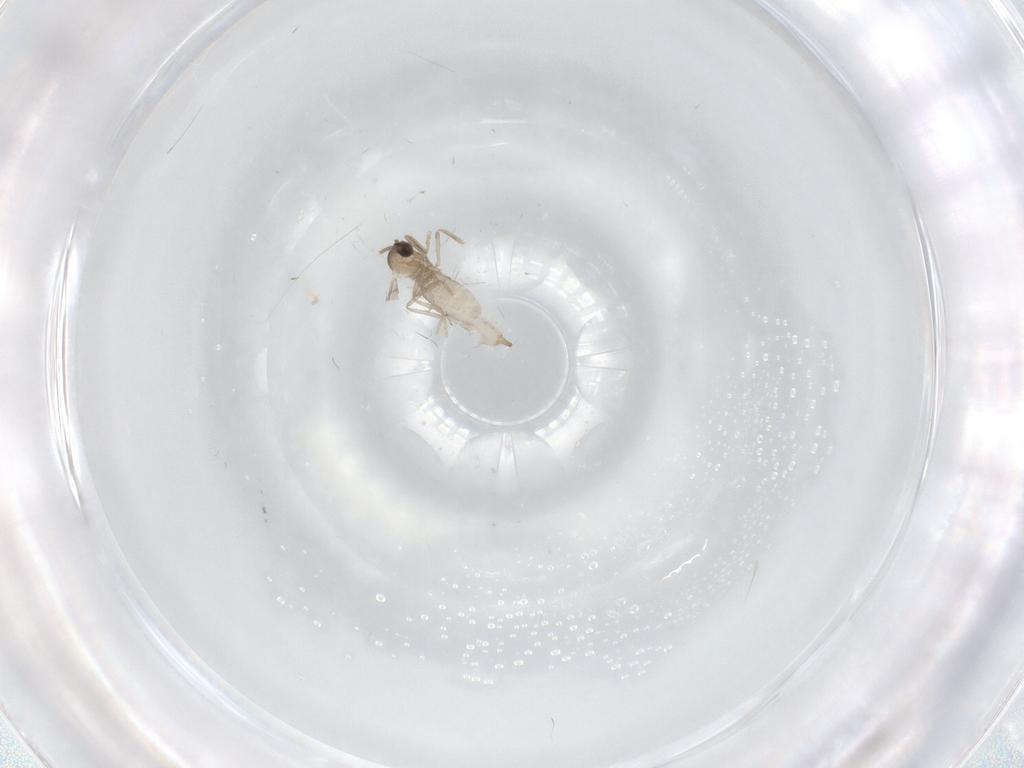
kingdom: Animalia
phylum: Arthropoda
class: Insecta
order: Diptera
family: Cecidomyiidae
